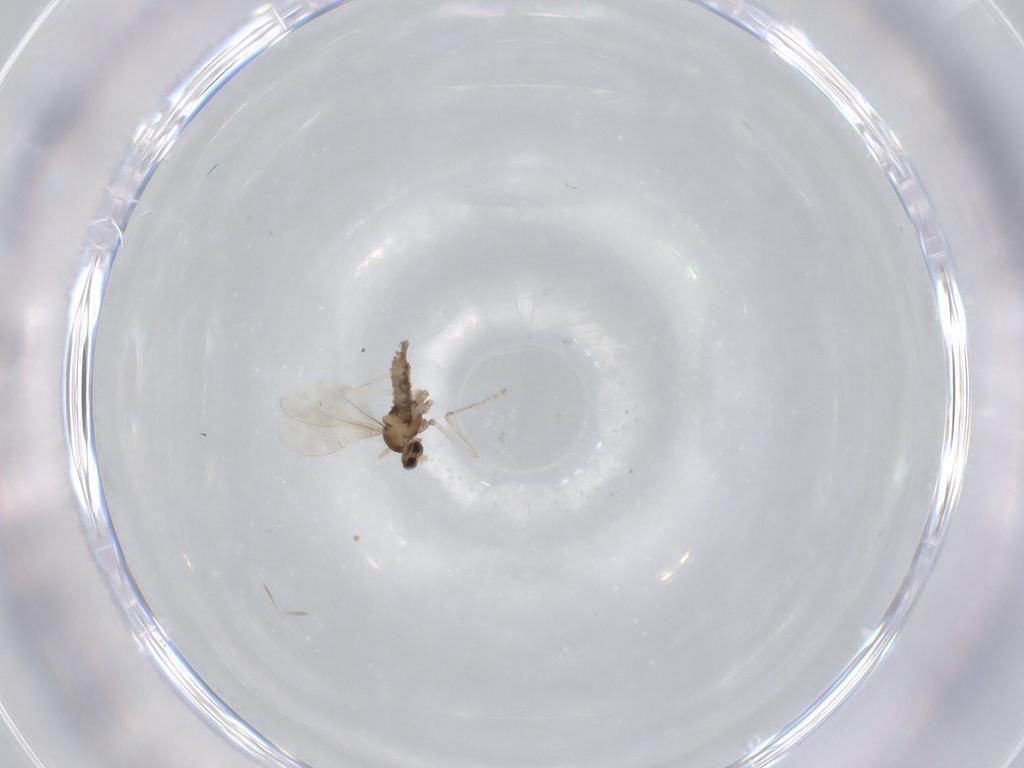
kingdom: Animalia
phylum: Arthropoda
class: Insecta
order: Diptera
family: Cecidomyiidae
